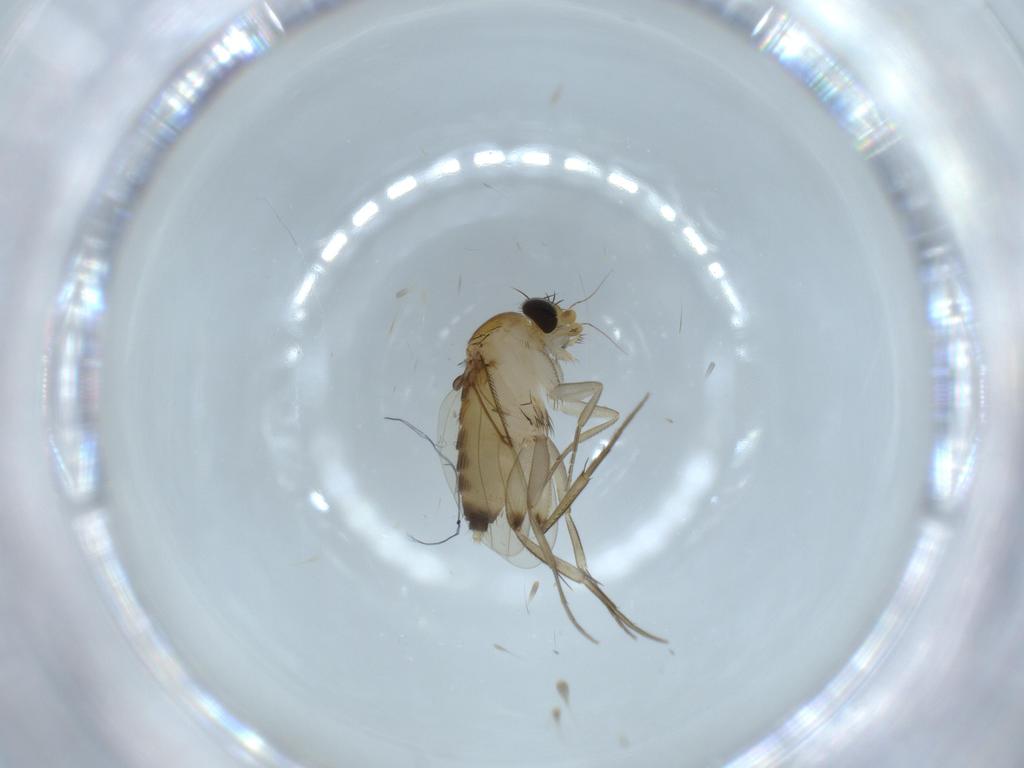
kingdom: Animalia
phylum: Arthropoda
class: Insecta
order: Diptera
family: Phoridae
